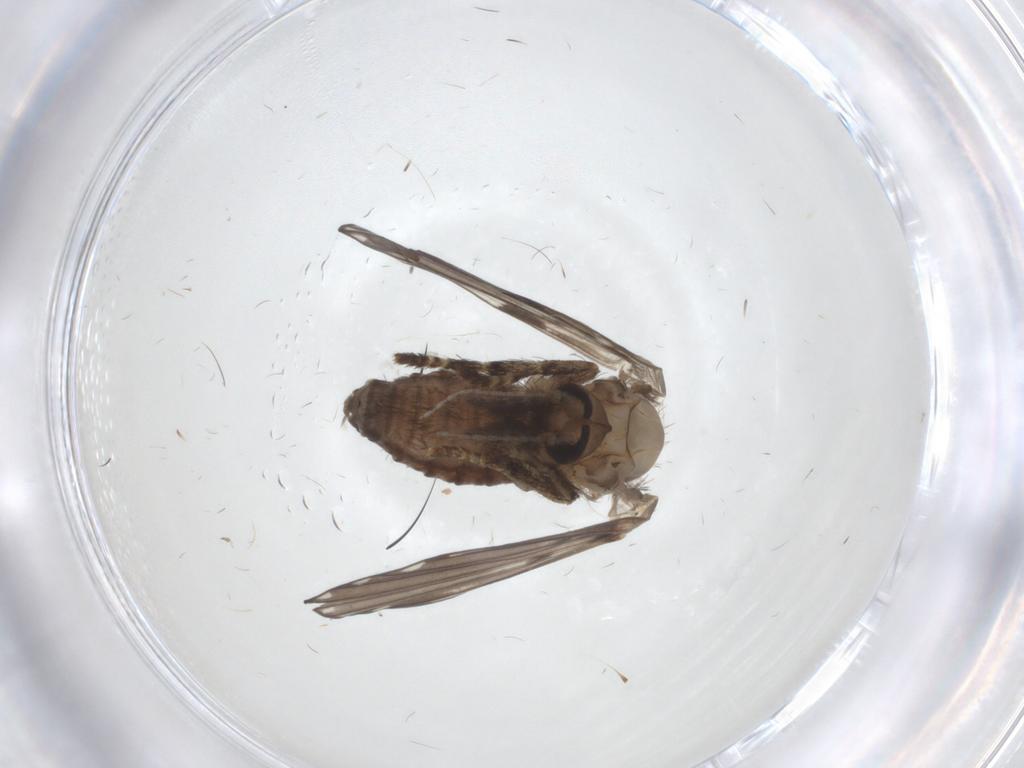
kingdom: Animalia
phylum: Arthropoda
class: Insecta
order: Diptera
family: Psychodidae
